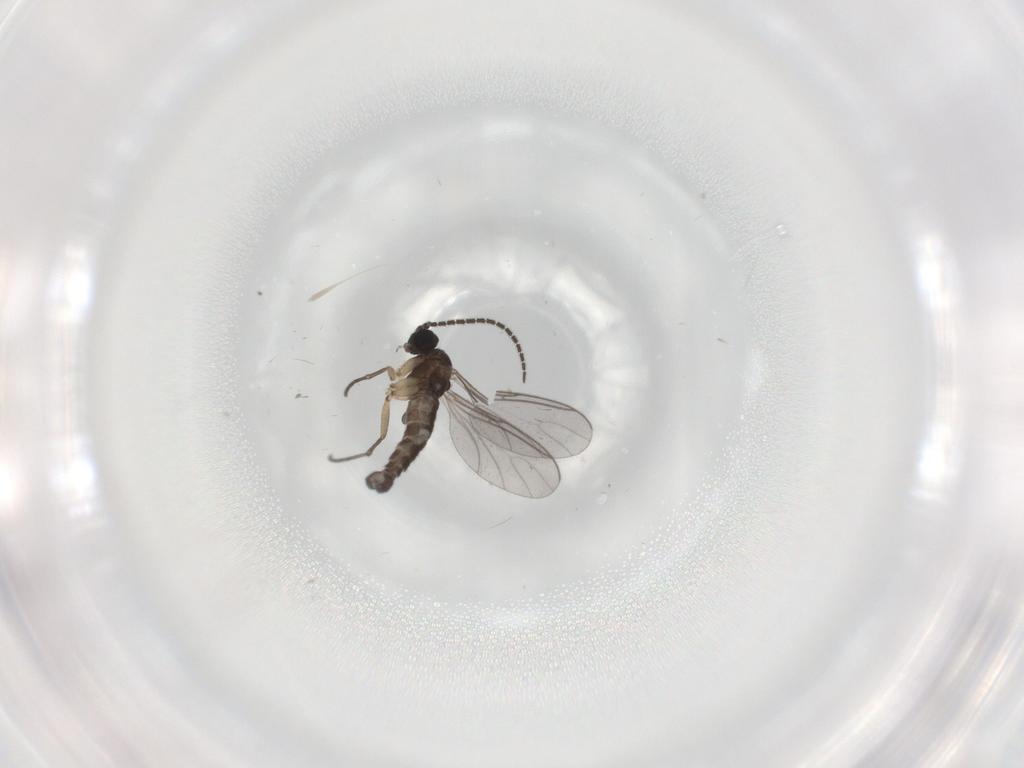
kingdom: Animalia
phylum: Arthropoda
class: Insecta
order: Diptera
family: Sciaridae
